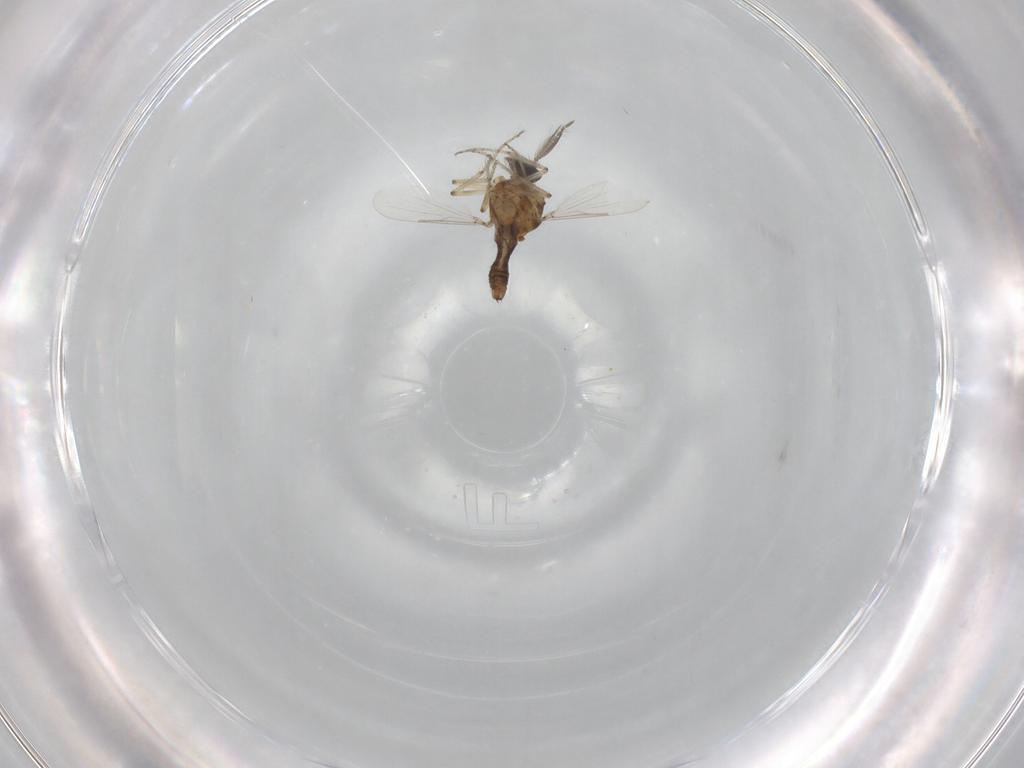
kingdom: Animalia
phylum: Arthropoda
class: Insecta
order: Diptera
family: Ceratopogonidae
